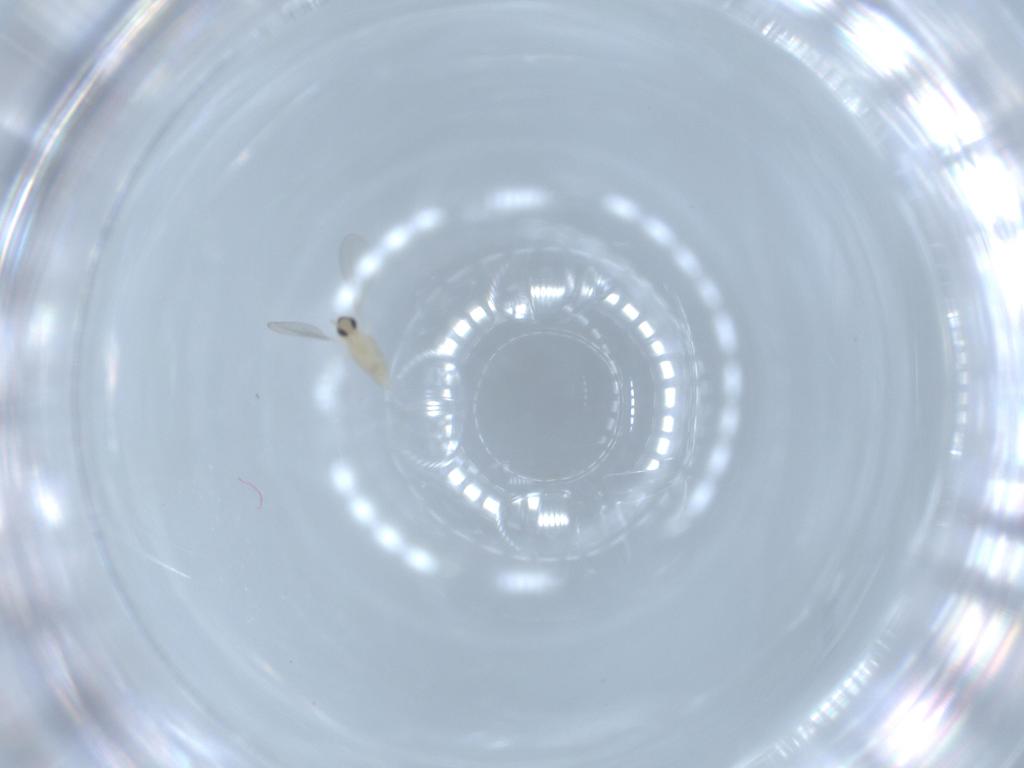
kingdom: Animalia
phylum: Arthropoda
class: Insecta
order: Diptera
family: Cecidomyiidae
